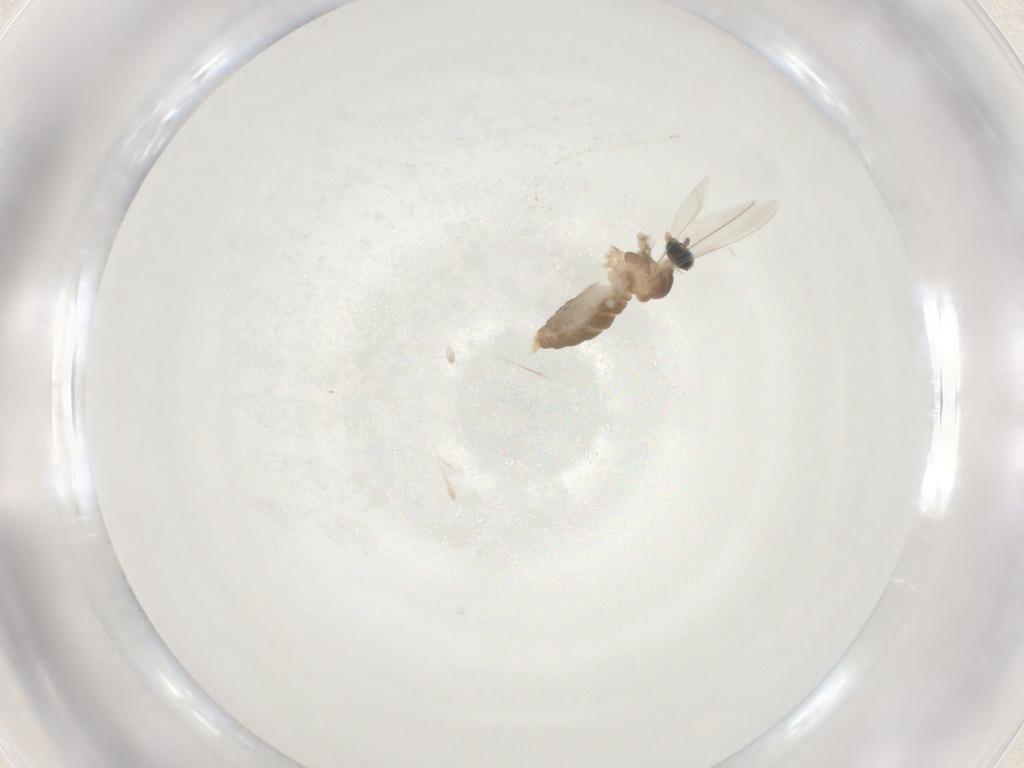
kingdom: Animalia
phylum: Arthropoda
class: Insecta
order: Diptera
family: Cecidomyiidae
